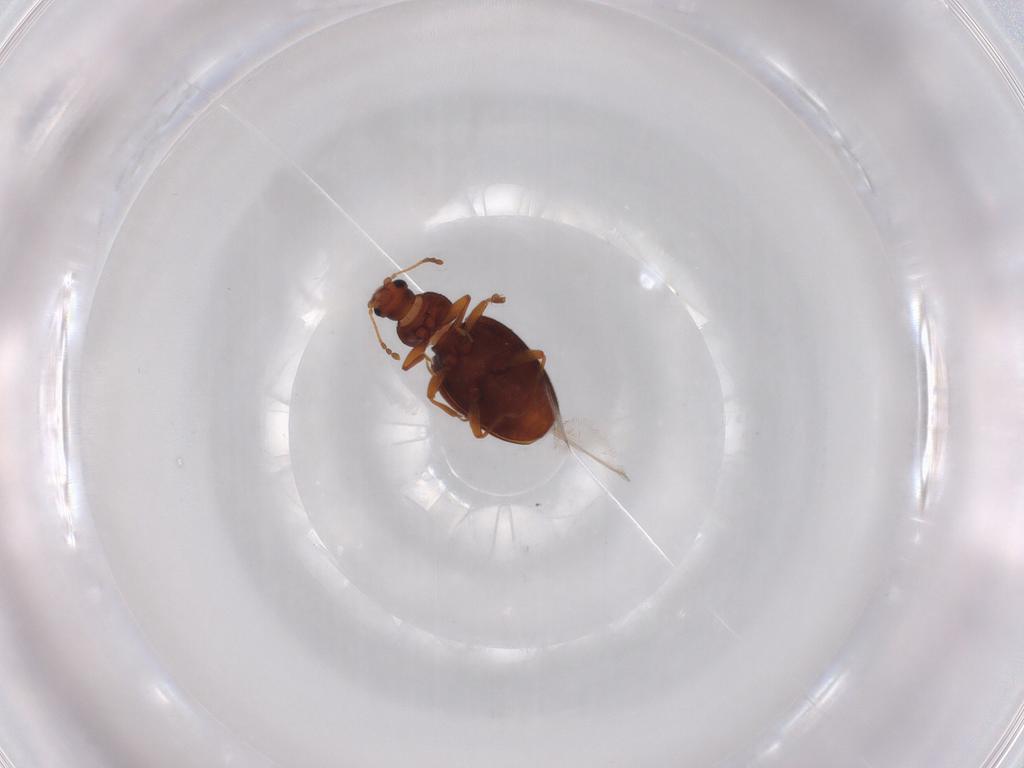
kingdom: Animalia
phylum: Arthropoda
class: Insecta
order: Coleoptera
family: Latridiidae
